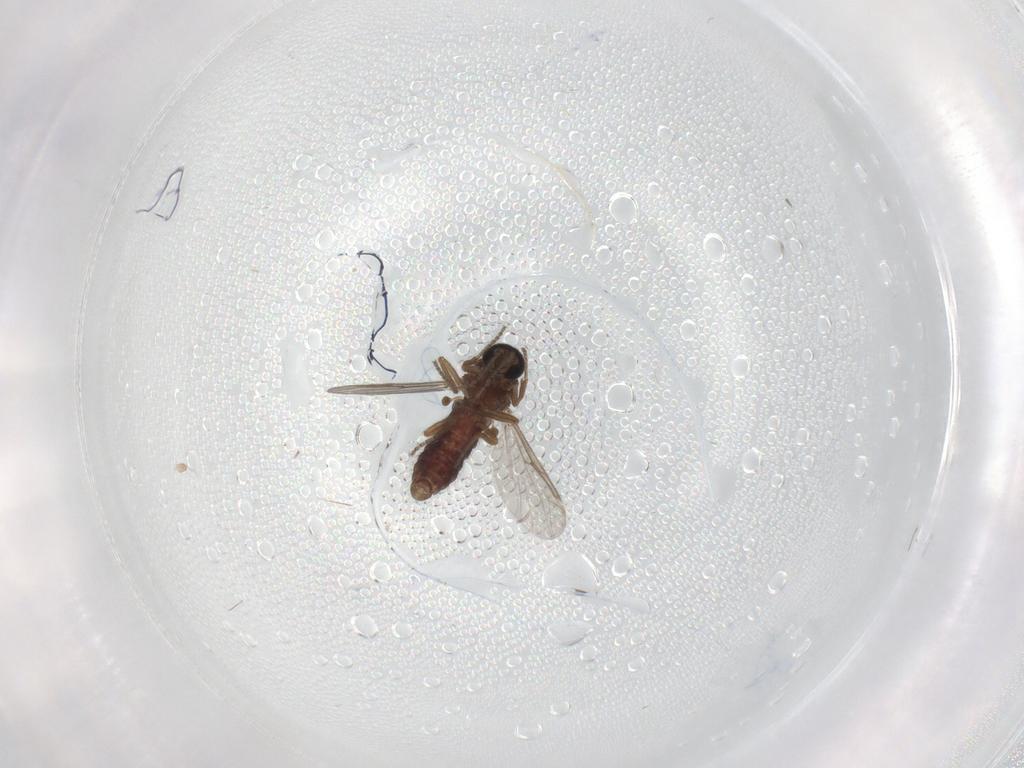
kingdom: Animalia
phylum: Arthropoda
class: Insecta
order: Diptera
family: Ceratopogonidae
